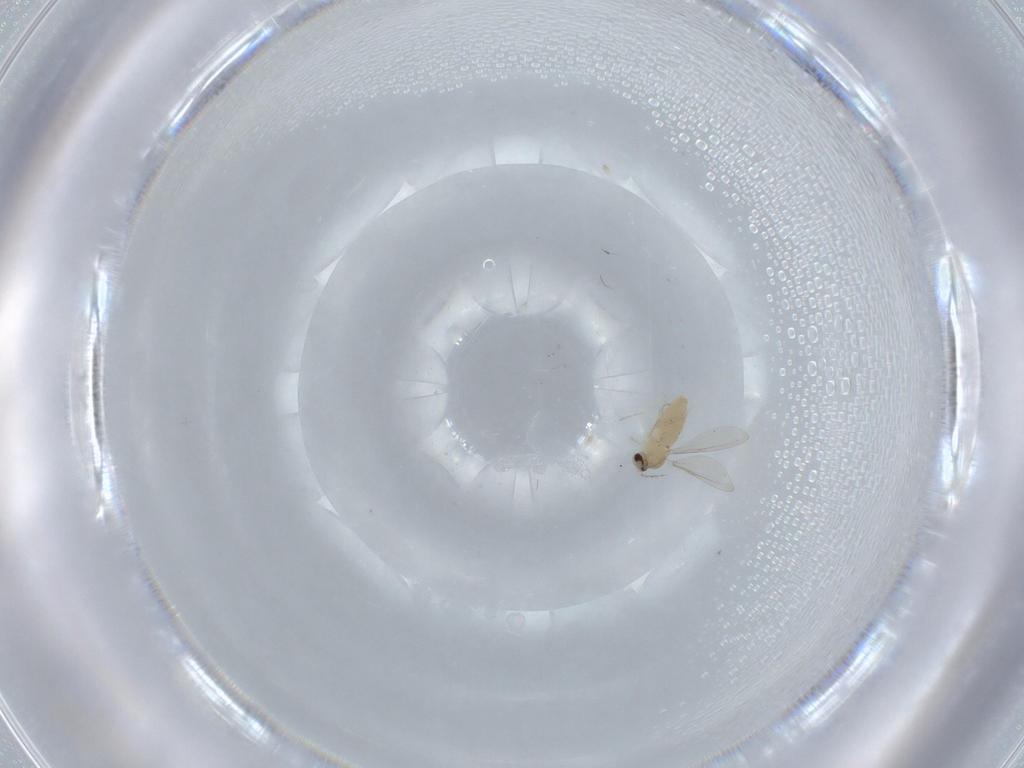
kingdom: Animalia
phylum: Arthropoda
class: Insecta
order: Diptera
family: Cecidomyiidae
